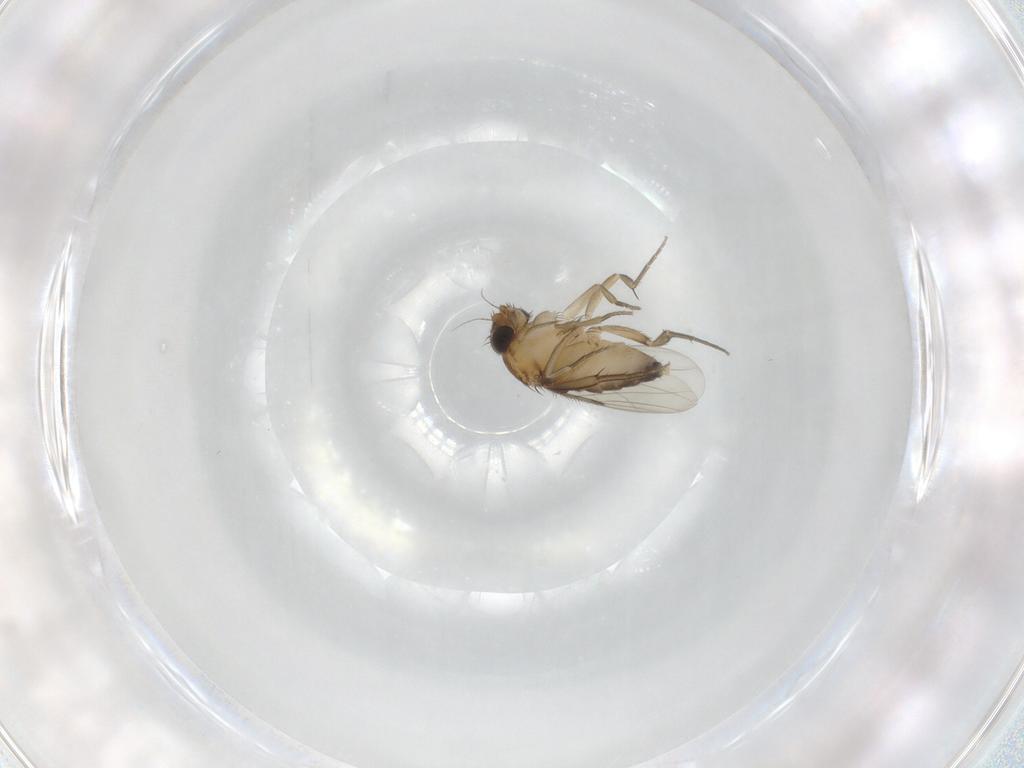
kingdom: Animalia
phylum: Arthropoda
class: Insecta
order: Diptera
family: Phoridae
